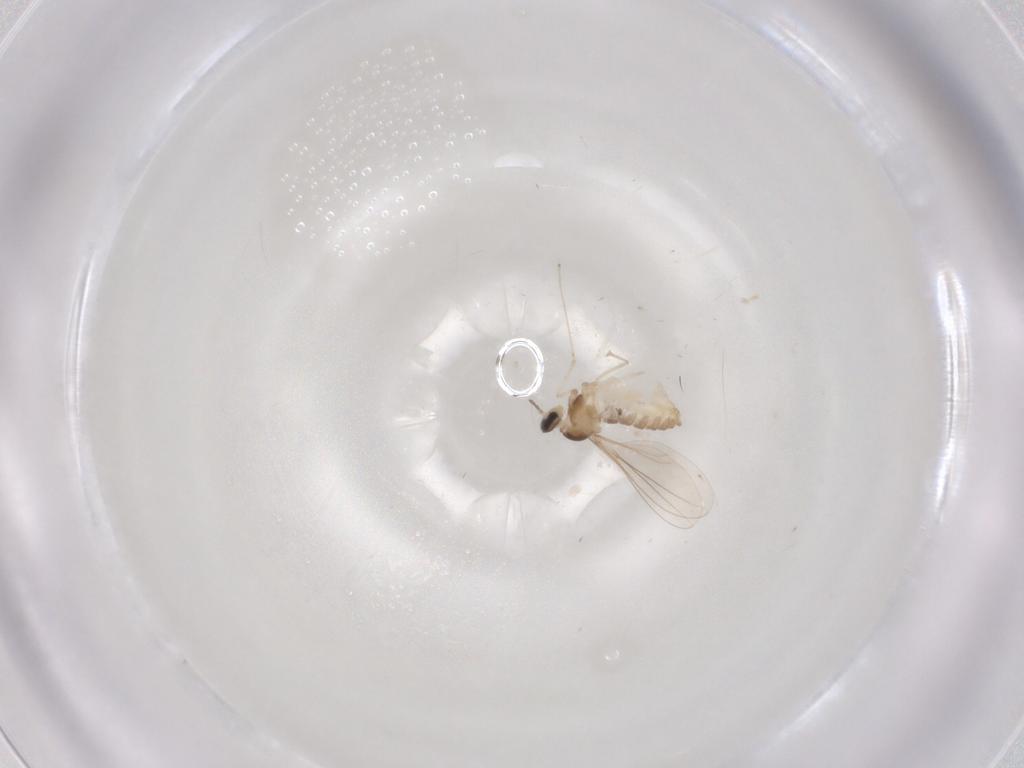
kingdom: Animalia
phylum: Arthropoda
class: Insecta
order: Diptera
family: Cecidomyiidae
